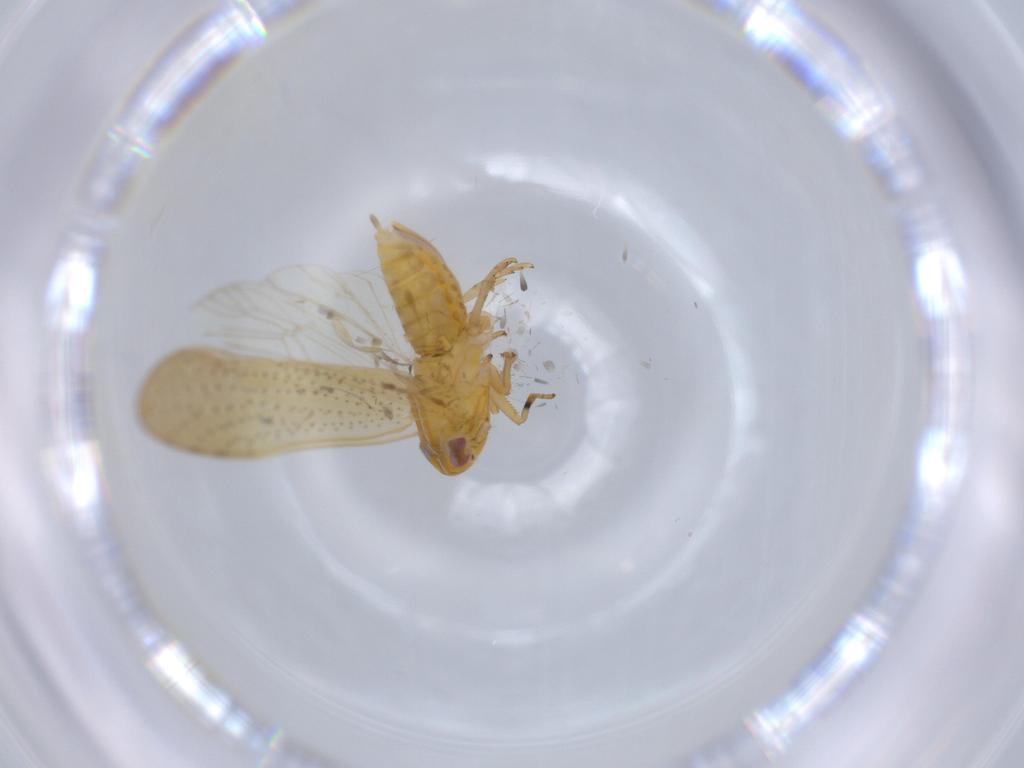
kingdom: Animalia
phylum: Arthropoda
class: Insecta
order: Hemiptera
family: Delphacidae
